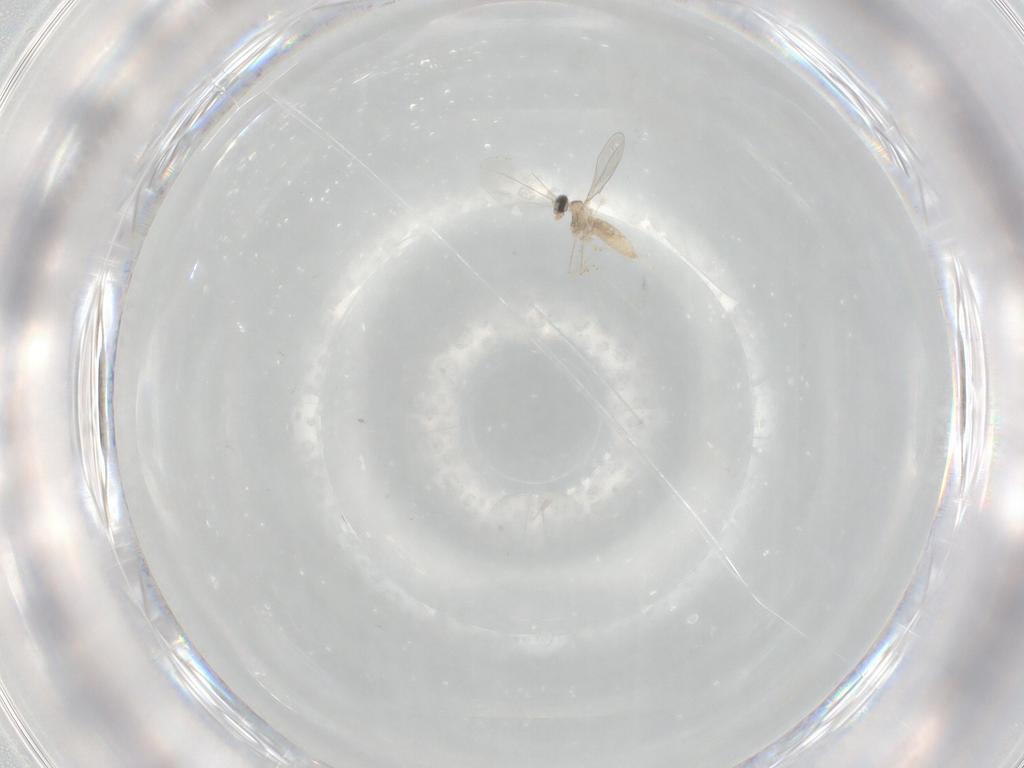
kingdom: Animalia
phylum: Arthropoda
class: Insecta
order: Diptera
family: Cecidomyiidae
